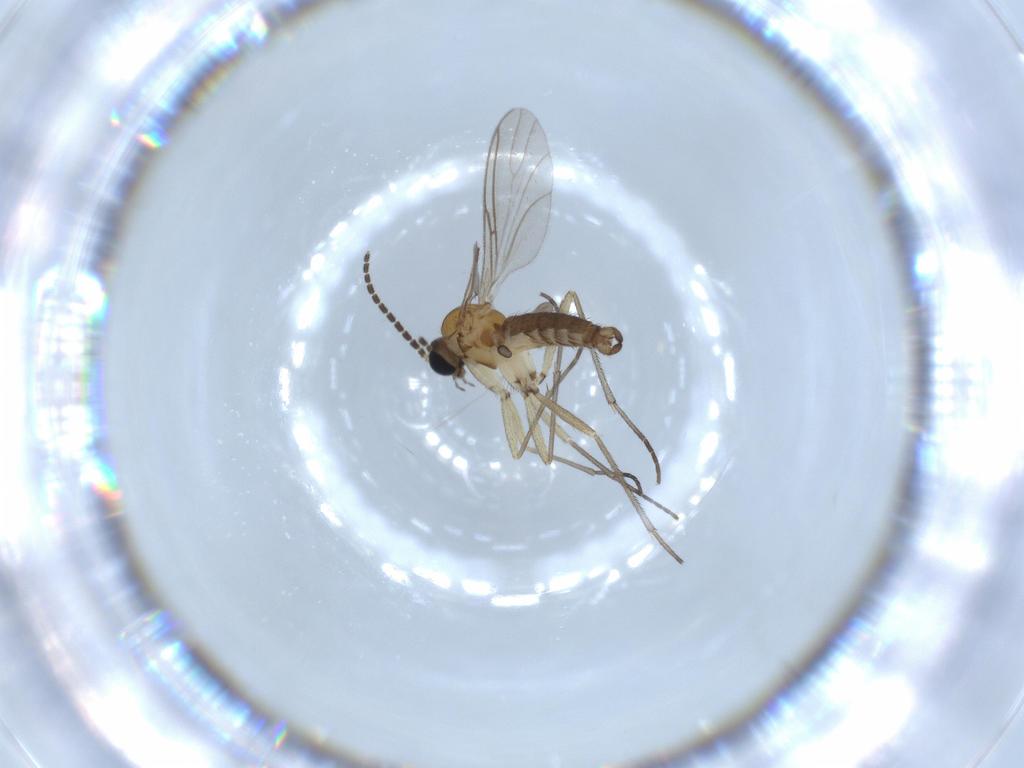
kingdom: Animalia
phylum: Arthropoda
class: Insecta
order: Diptera
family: Sciaridae
